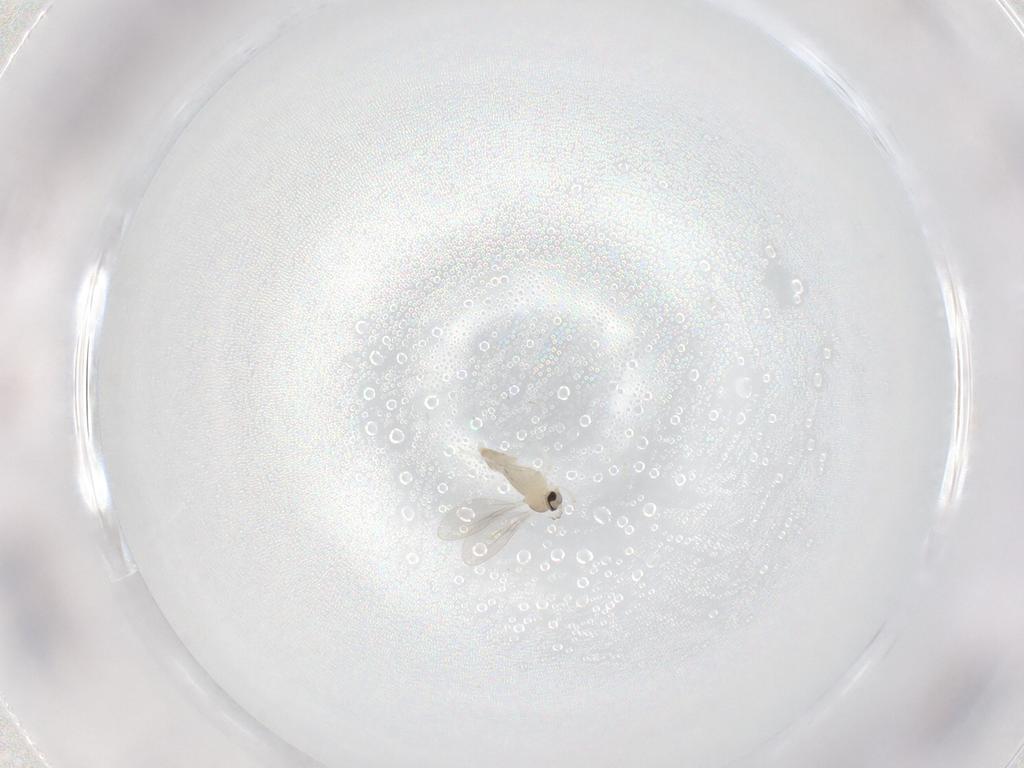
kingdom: Animalia
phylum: Arthropoda
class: Insecta
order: Diptera
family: Cecidomyiidae
